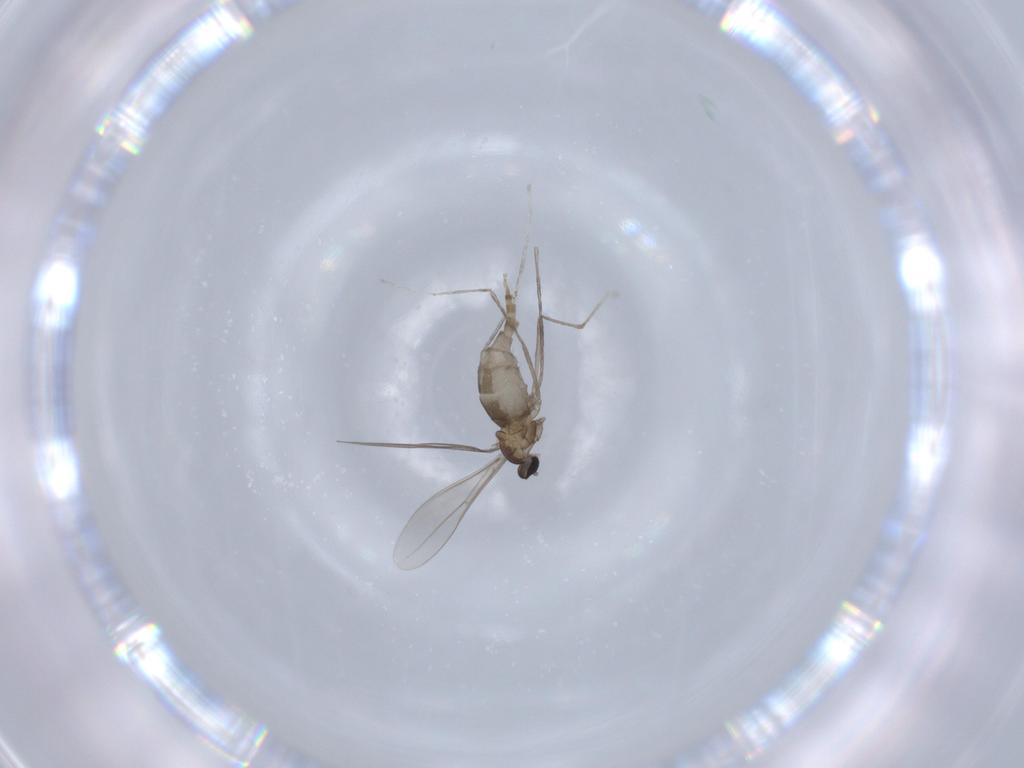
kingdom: Animalia
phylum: Arthropoda
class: Insecta
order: Diptera
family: Cecidomyiidae
